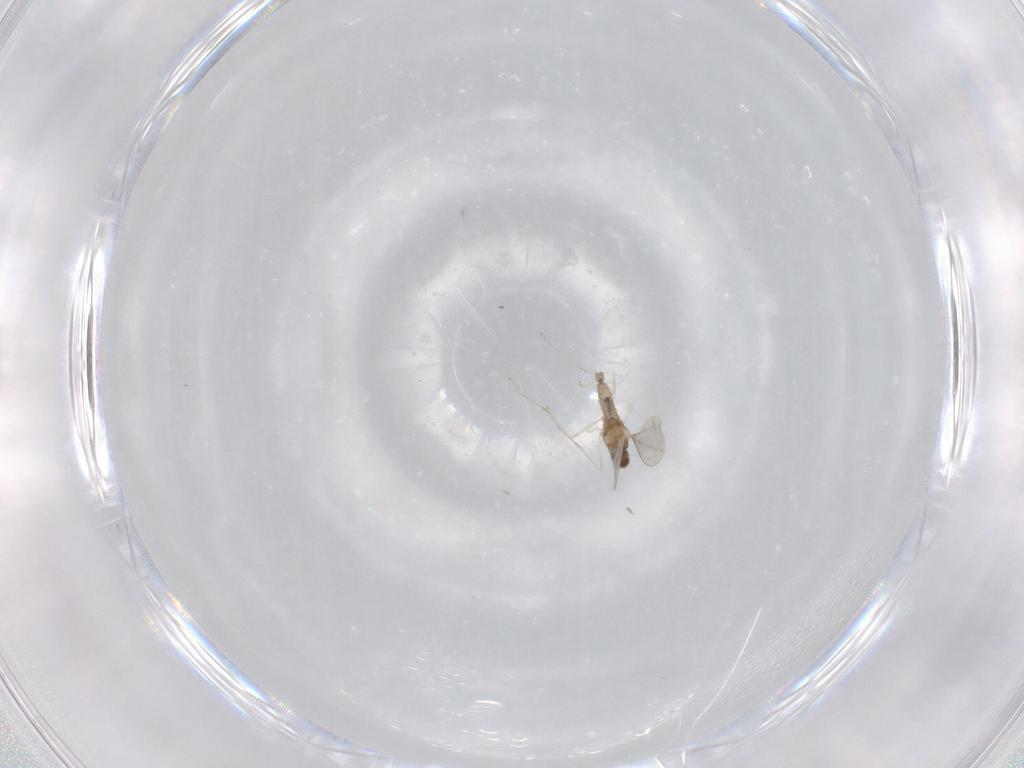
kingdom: Animalia
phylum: Arthropoda
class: Insecta
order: Diptera
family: Cecidomyiidae
